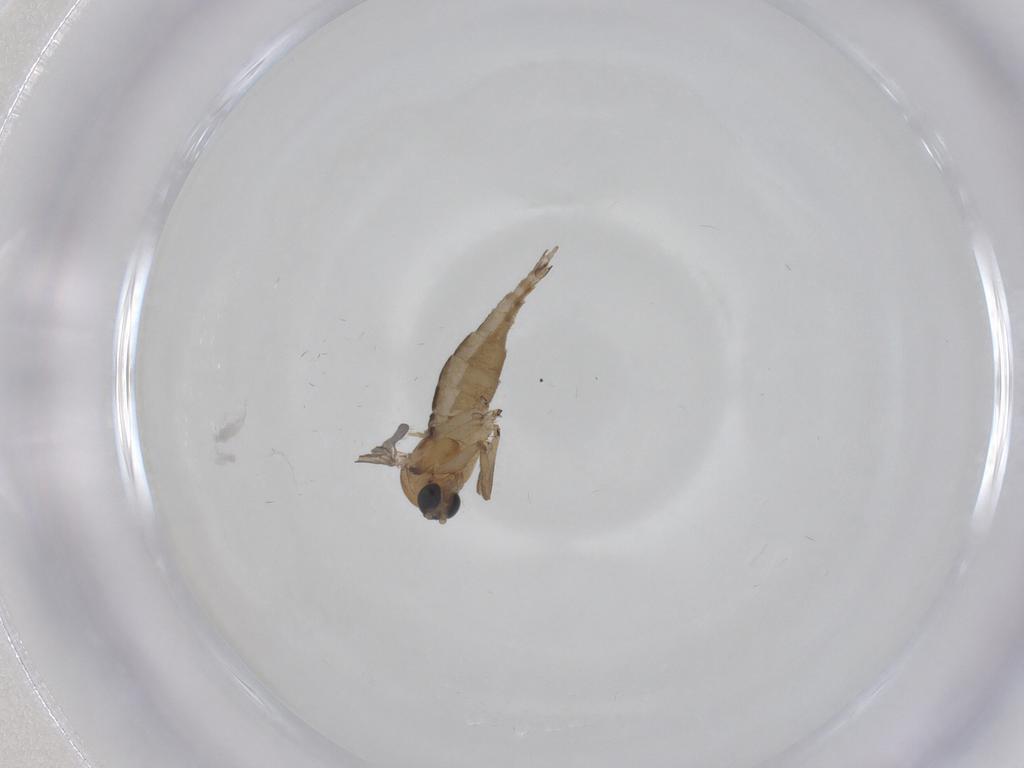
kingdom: Animalia
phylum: Arthropoda
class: Insecta
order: Diptera
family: Sciaridae
